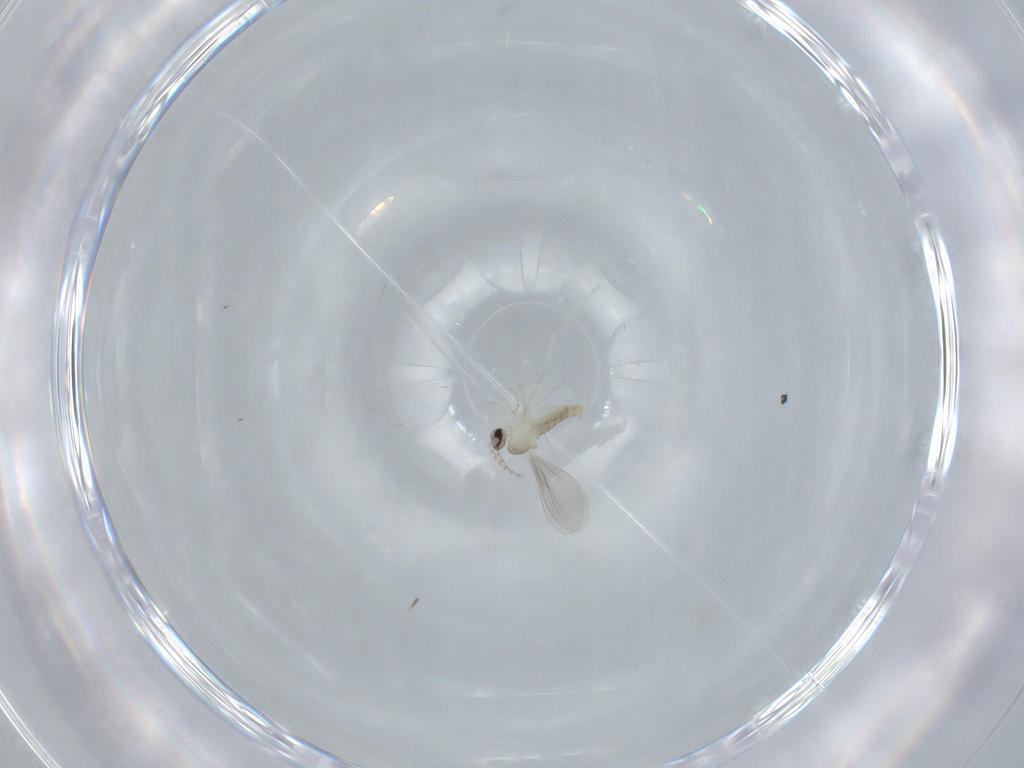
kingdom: Animalia
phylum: Arthropoda
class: Insecta
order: Diptera
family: Cecidomyiidae
